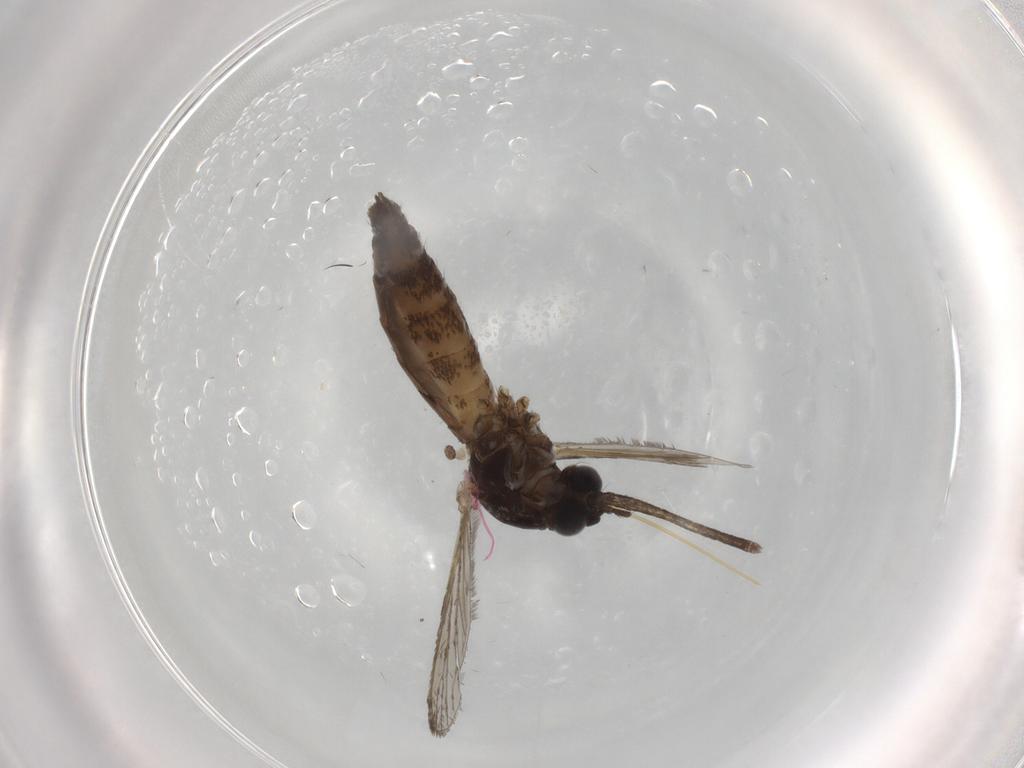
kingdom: Animalia
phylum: Arthropoda
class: Insecta
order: Diptera
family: Culicidae
